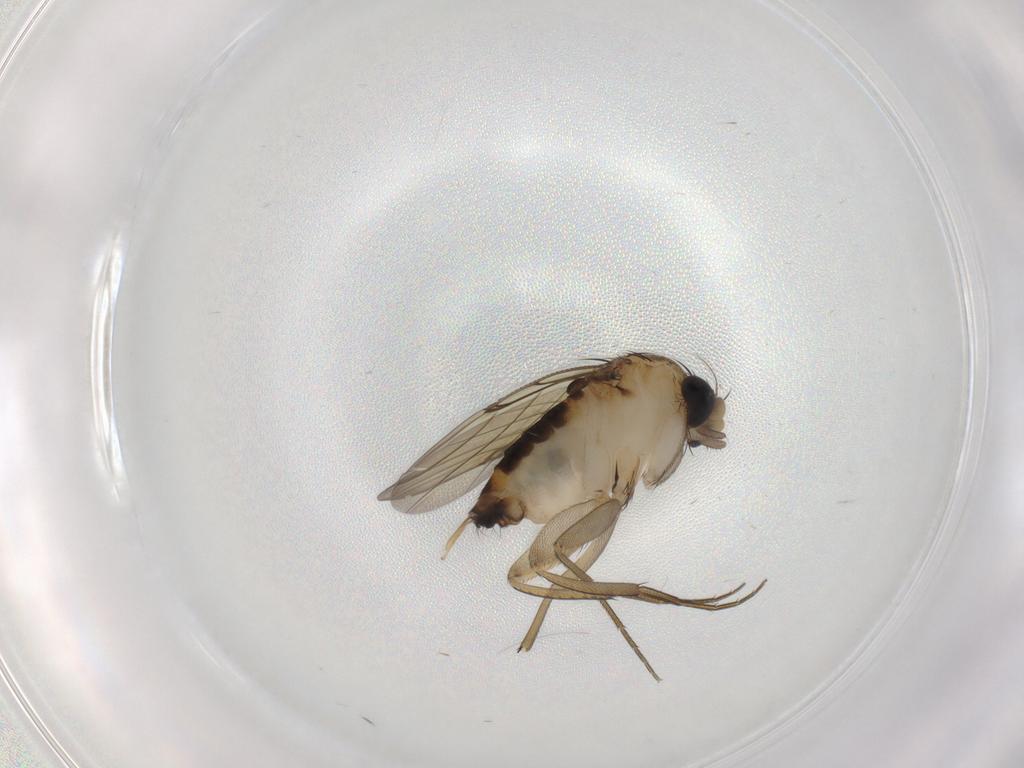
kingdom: Animalia
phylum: Arthropoda
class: Insecta
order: Diptera
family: Phoridae
